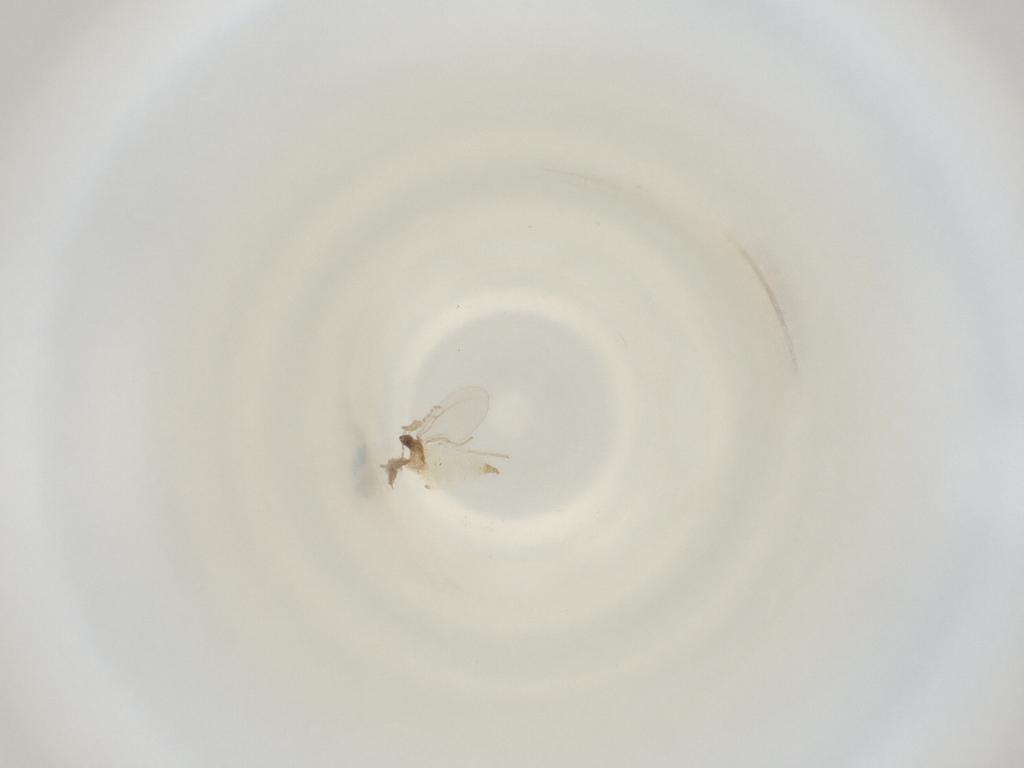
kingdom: Animalia
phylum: Arthropoda
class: Insecta
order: Diptera
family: Cecidomyiidae
